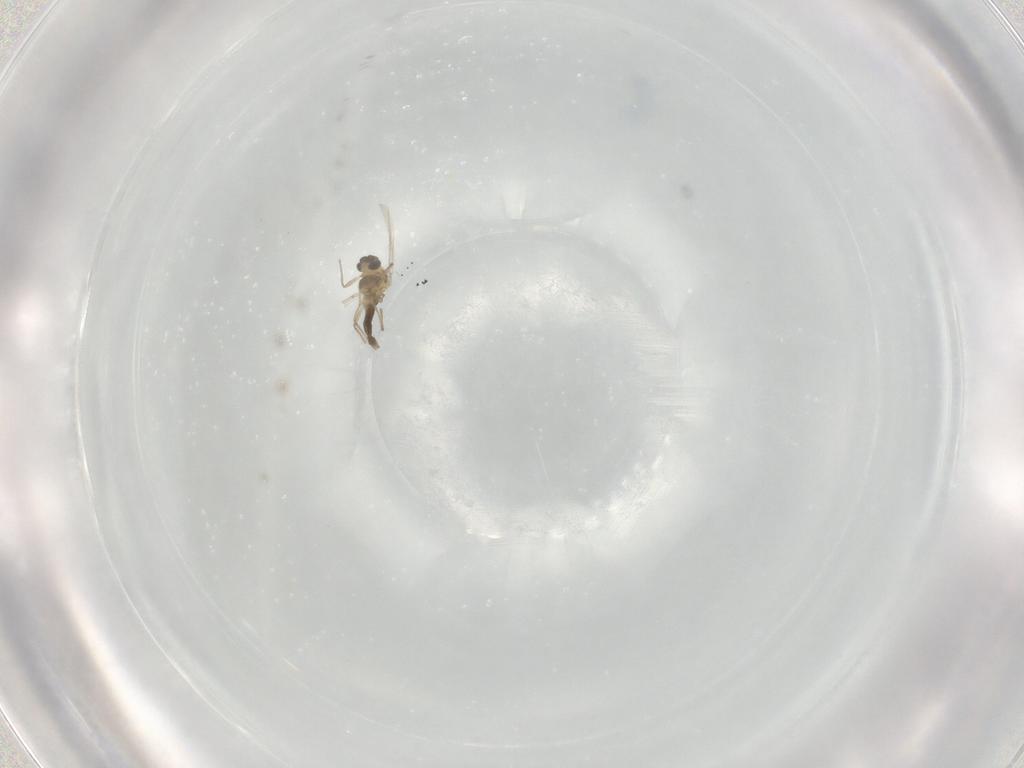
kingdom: Animalia
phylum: Arthropoda
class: Insecta
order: Diptera
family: Chironomidae
